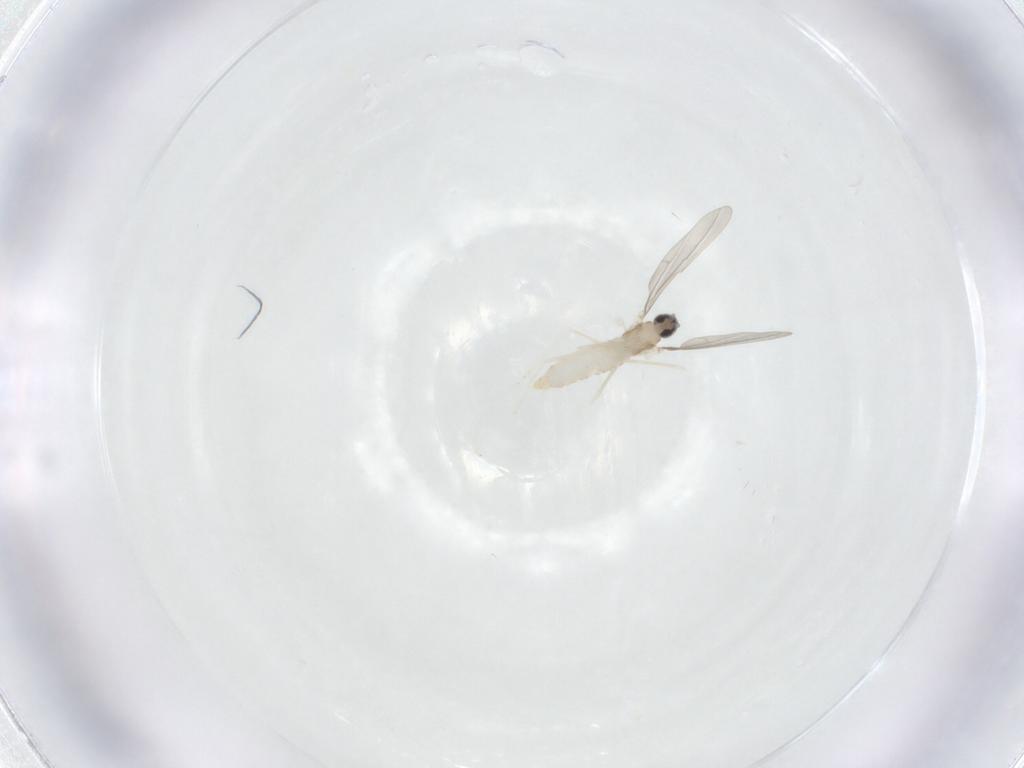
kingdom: Animalia
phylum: Arthropoda
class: Insecta
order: Diptera
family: Cecidomyiidae
